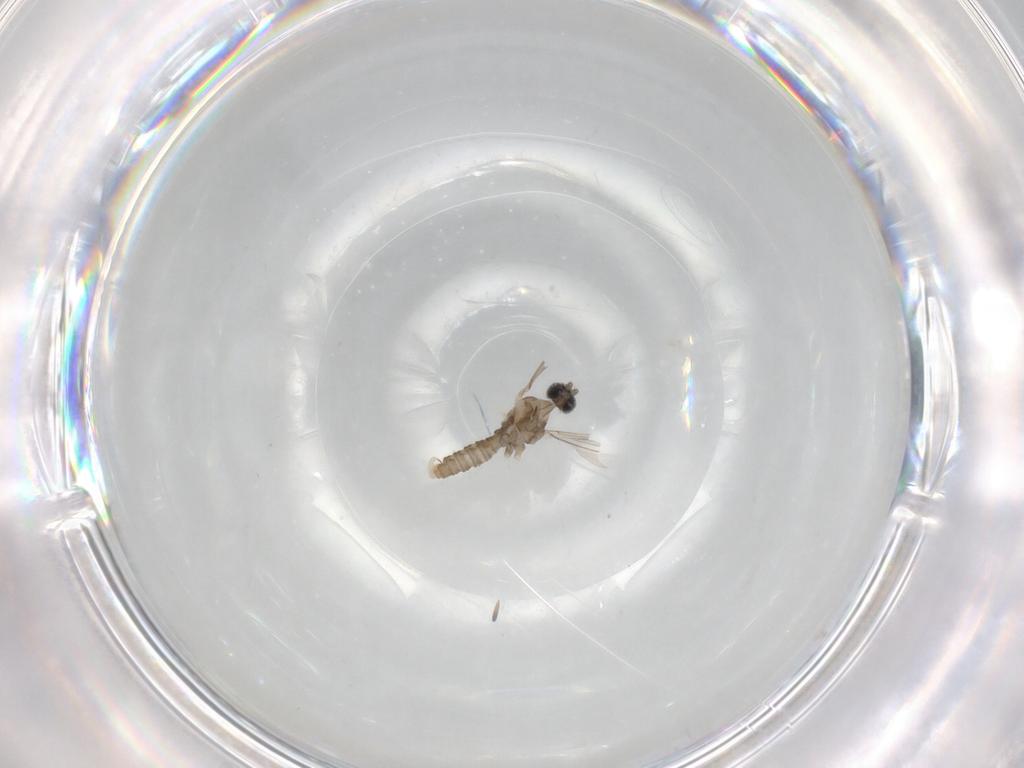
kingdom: Animalia
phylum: Arthropoda
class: Insecta
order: Diptera
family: Cecidomyiidae
